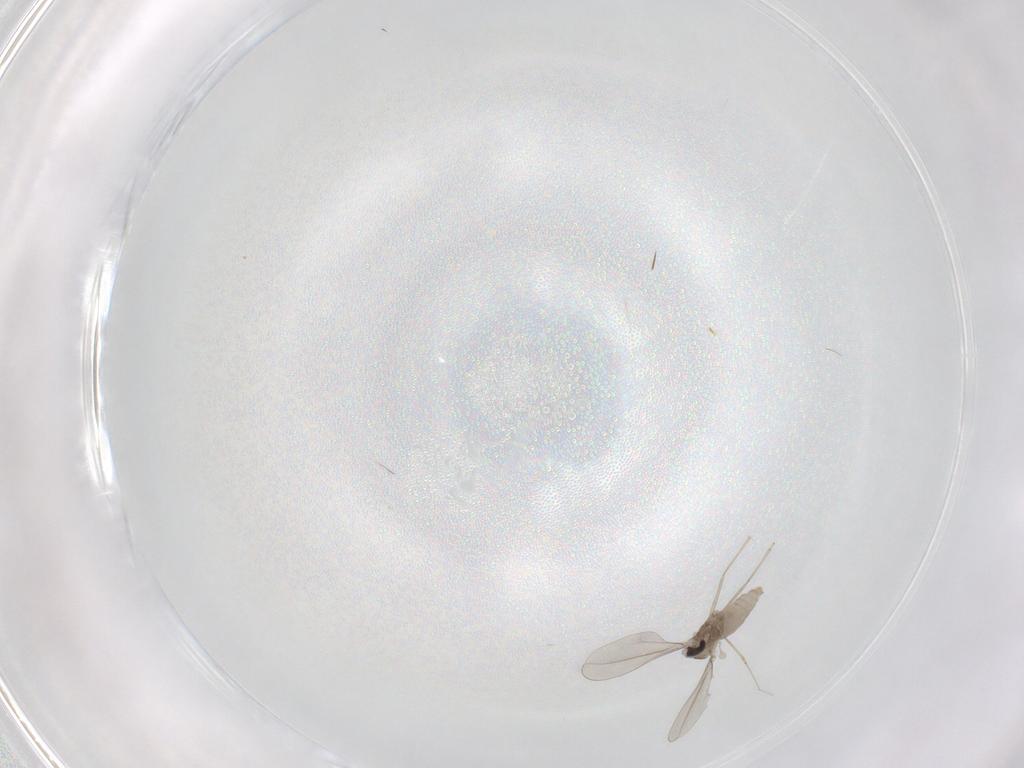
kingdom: Animalia
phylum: Arthropoda
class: Insecta
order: Diptera
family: Cecidomyiidae
